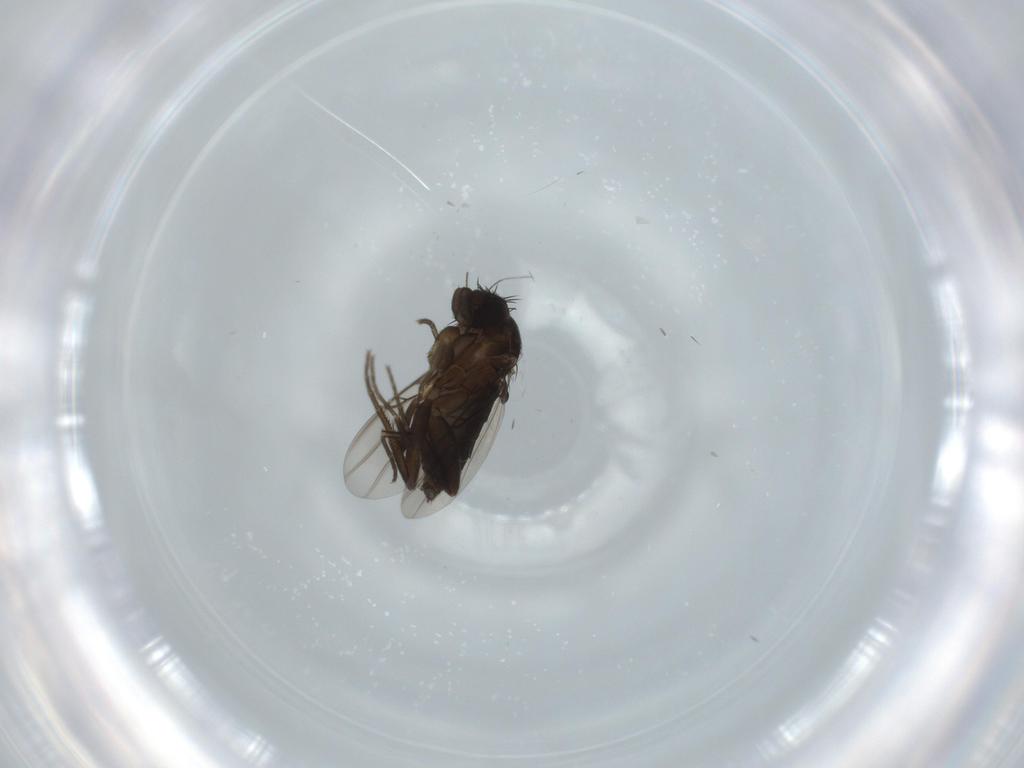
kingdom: Animalia
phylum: Arthropoda
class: Insecta
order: Diptera
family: Phoridae
